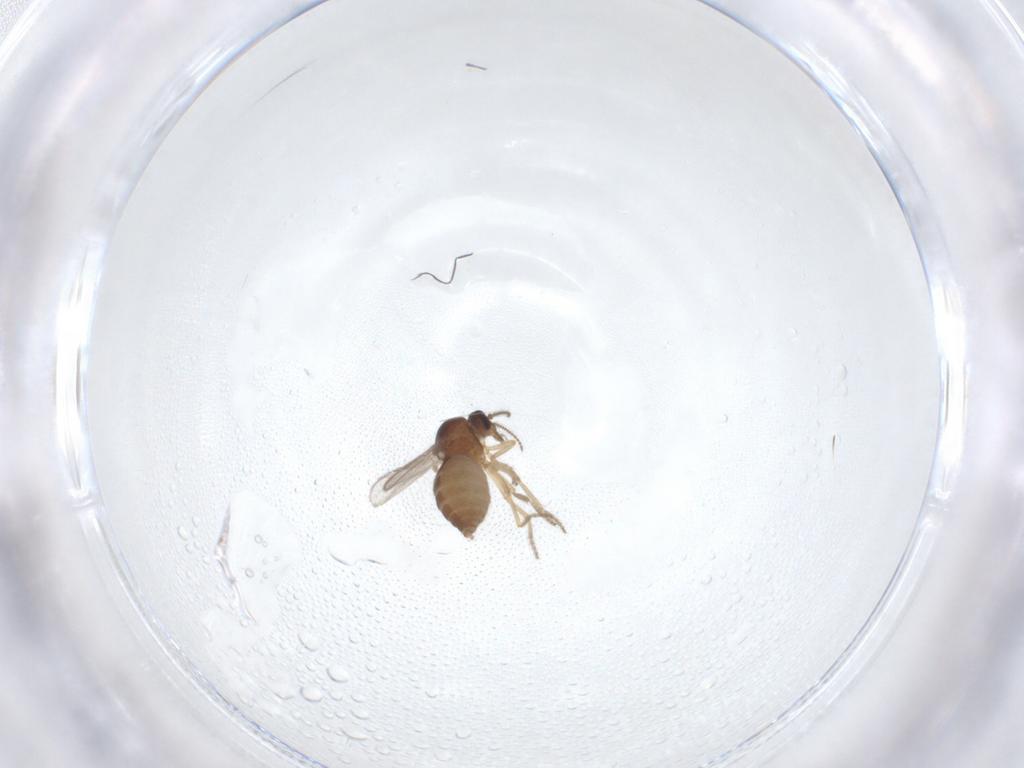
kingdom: Animalia
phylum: Arthropoda
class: Insecta
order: Diptera
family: Ceratopogonidae
